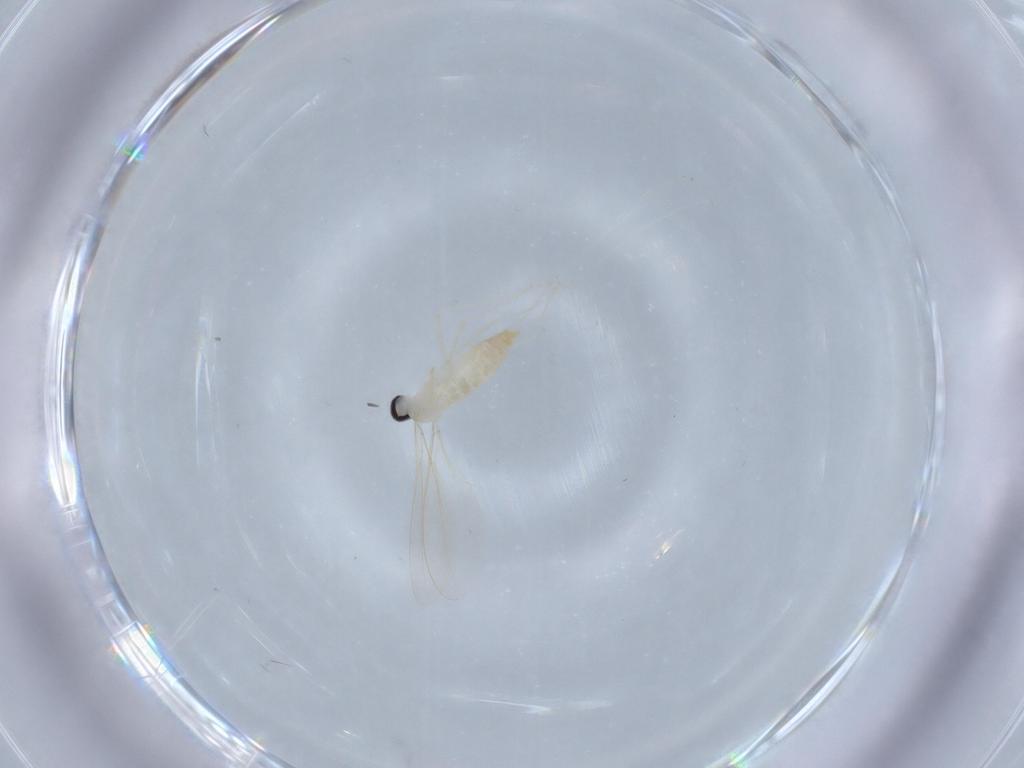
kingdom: Animalia
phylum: Arthropoda
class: Insecta
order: Diptera
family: Cecidomyiidae
